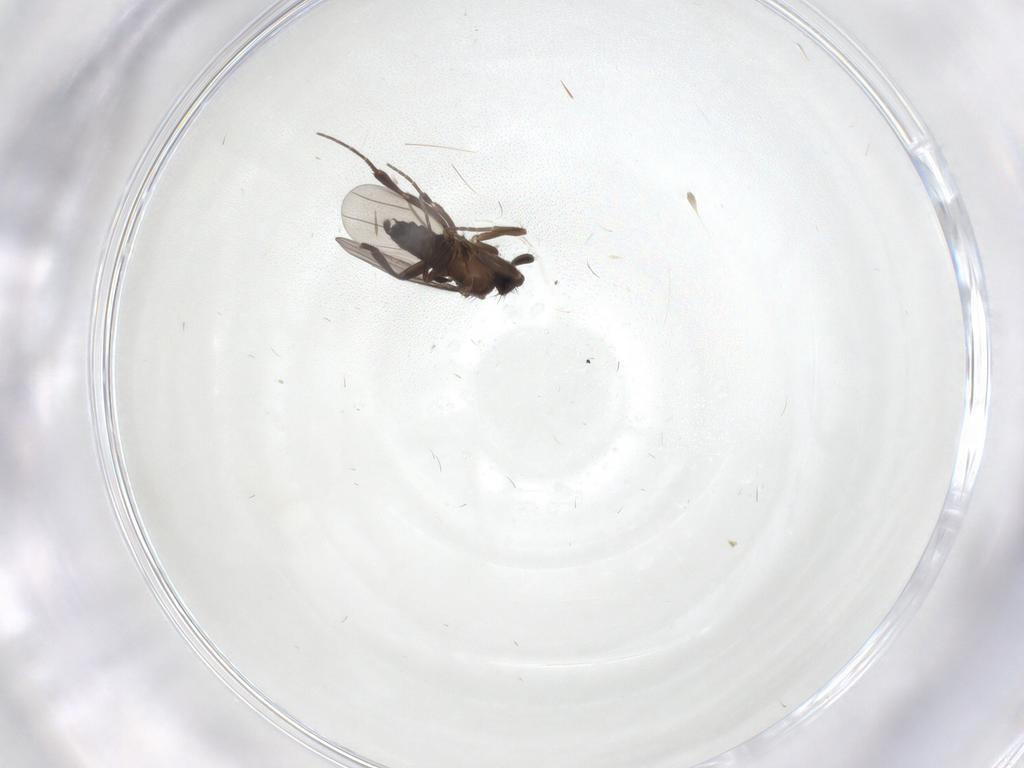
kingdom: Animalia
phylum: Arthropoda
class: Insecta
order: Diptera
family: Cecidomyiidae
